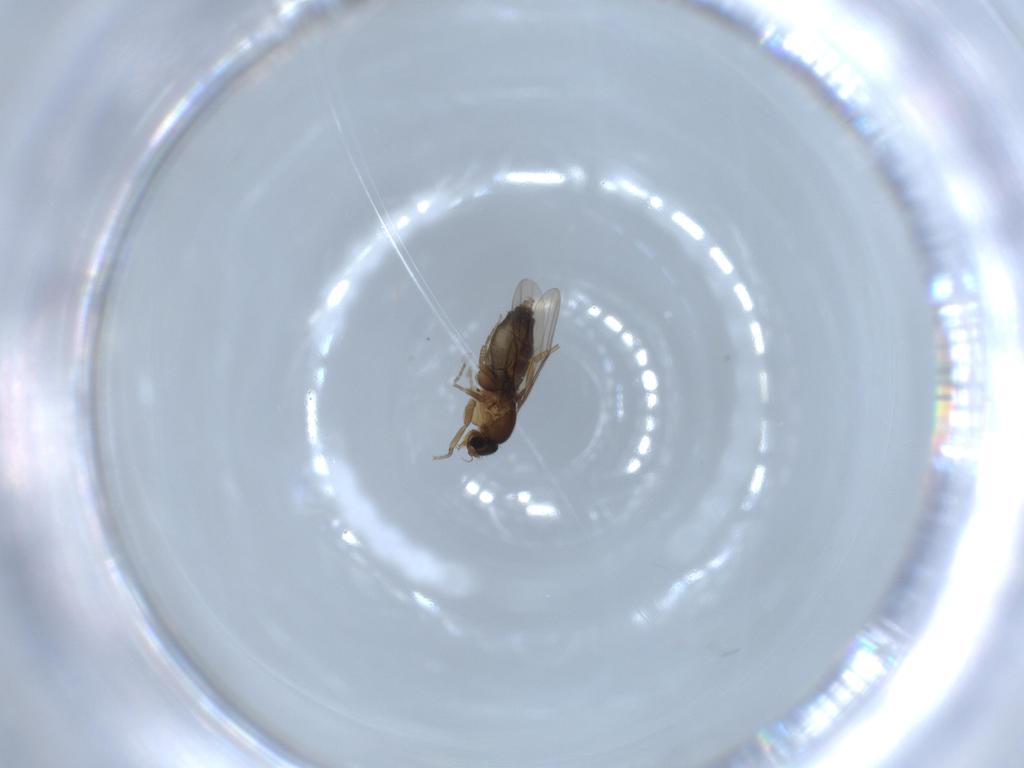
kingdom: Animalia
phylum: Arthropoda
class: Insecta
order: Diptera
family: Phoridae
